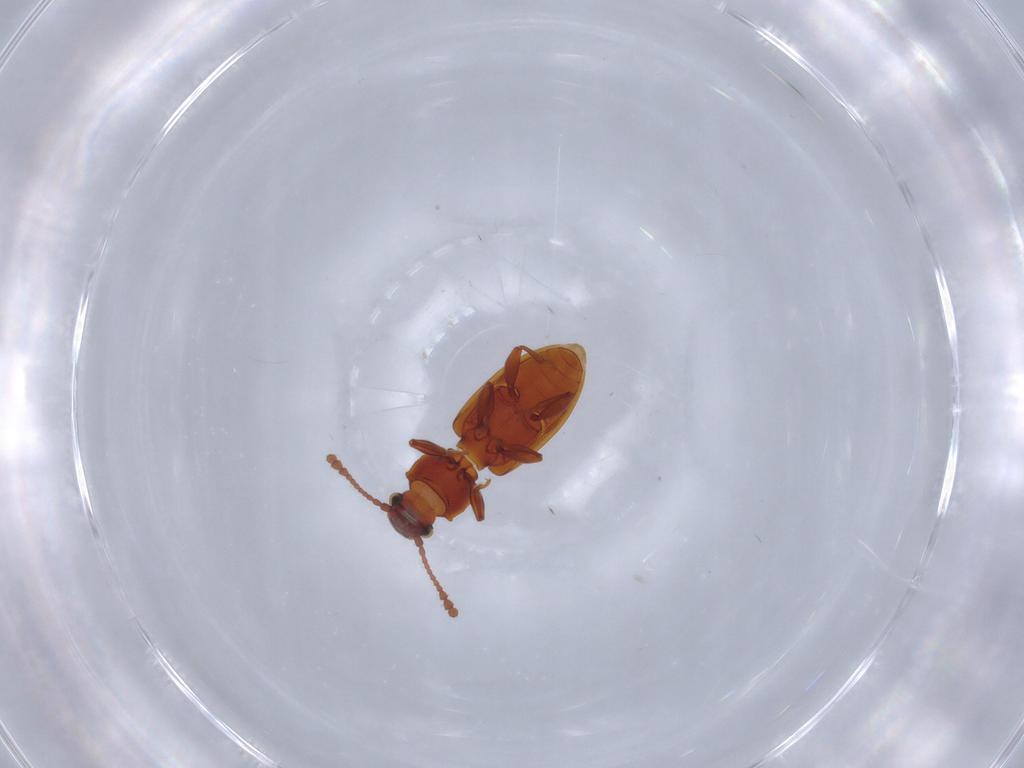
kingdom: Animalia
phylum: Arthropoda
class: Insecta
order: Coleoptera
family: Silvanidae
